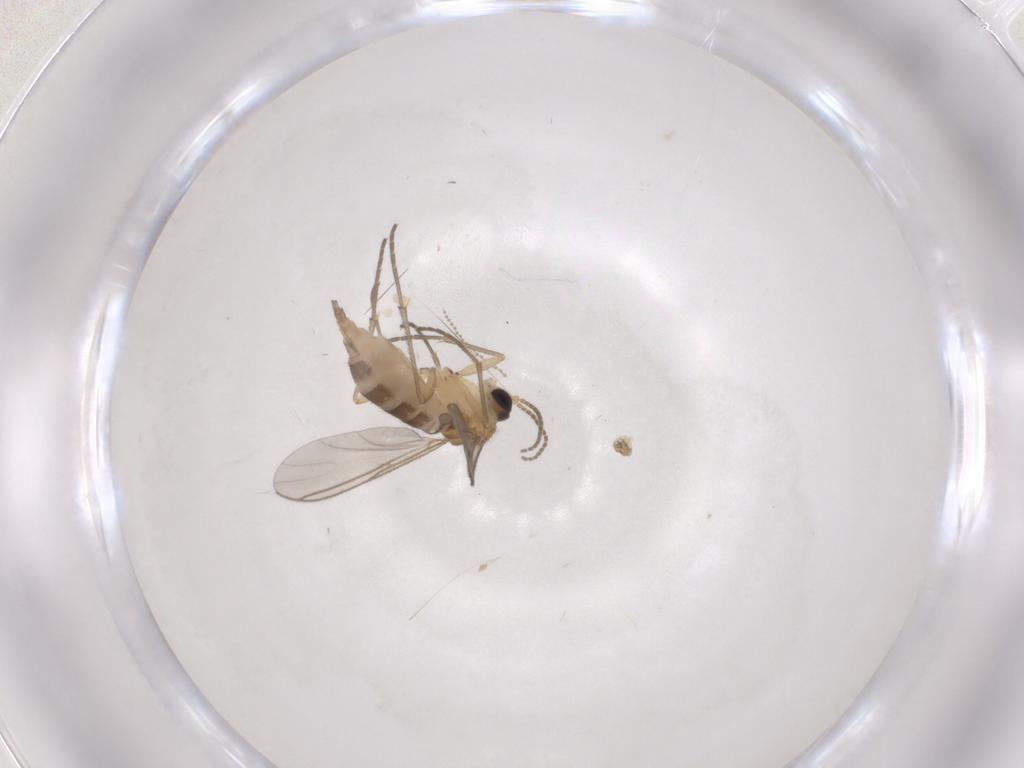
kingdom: Animalia
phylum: Arthropoda
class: Insecta
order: Diptera
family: Cecidomyiidae
